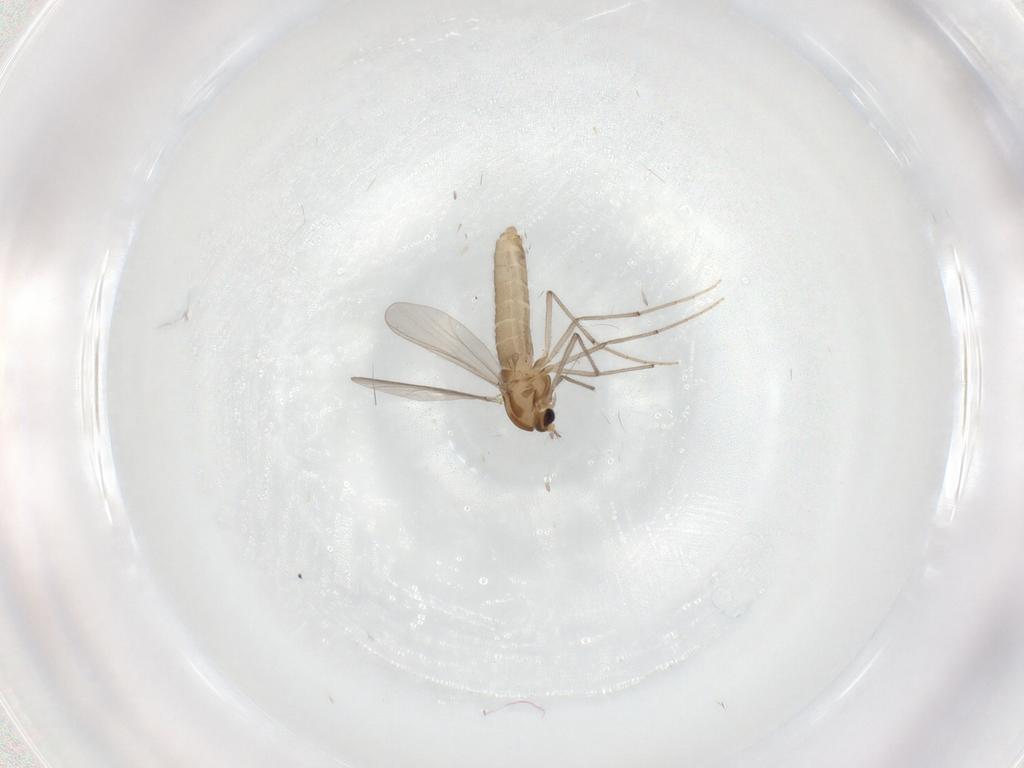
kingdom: Animalia
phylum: Arthropoda
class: Insecta
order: Diptera
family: Chironomidae
